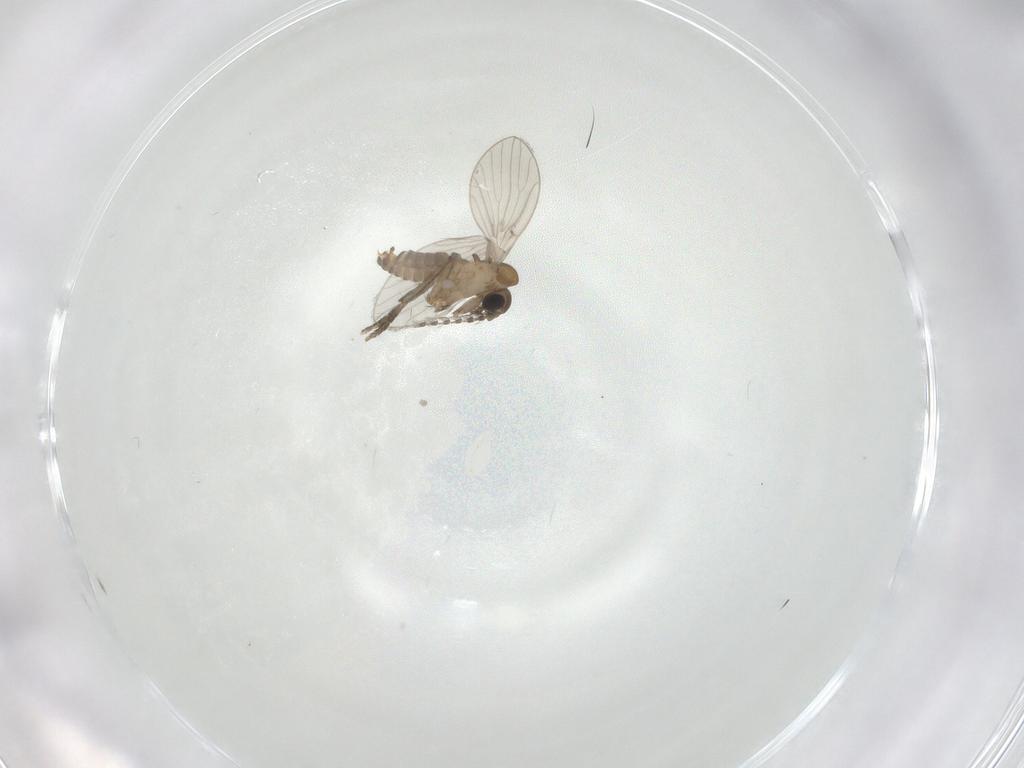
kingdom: Animalia
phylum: Arthropoda
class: Insecta
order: Diptera
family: Psychodidae
